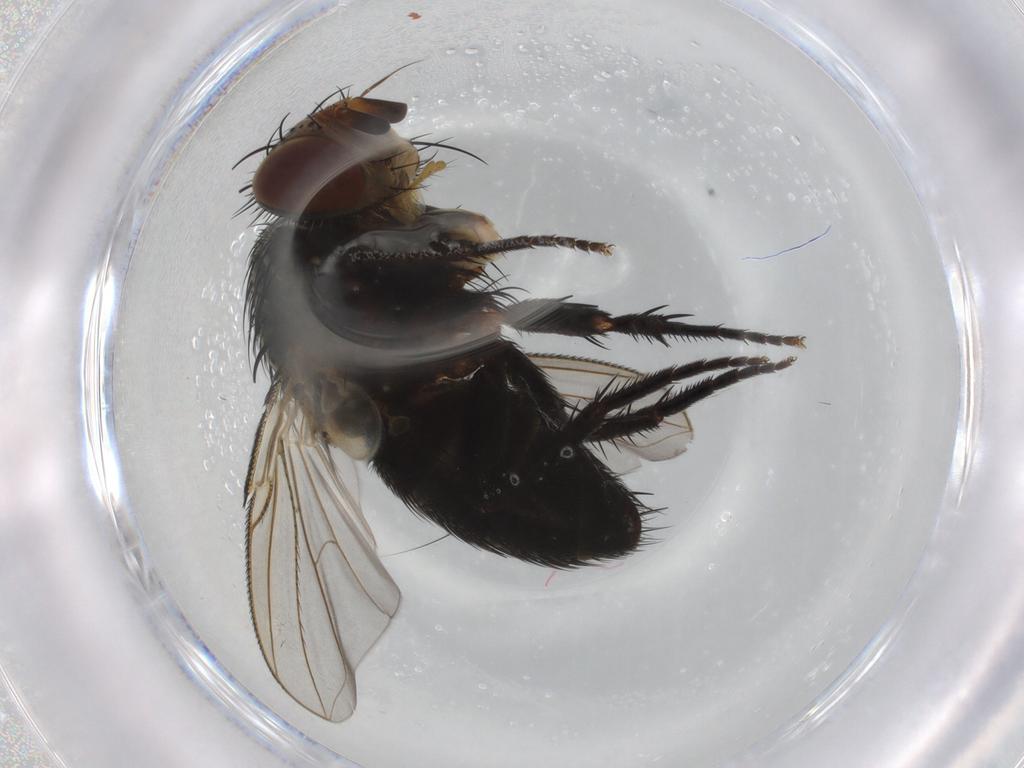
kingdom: Animalia
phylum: Arthropoda
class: Insecta
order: Diptera
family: Tachinidae
